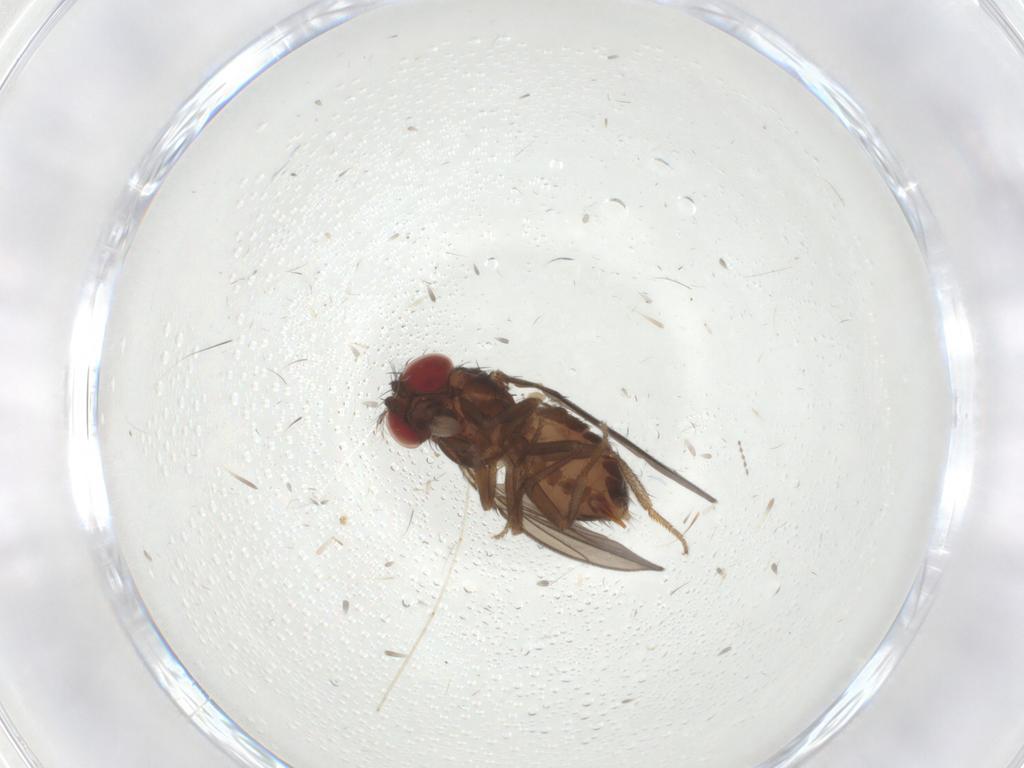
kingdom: Animalia
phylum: Arthropoda
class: Insecta
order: Diptera
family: Drosophilidae
